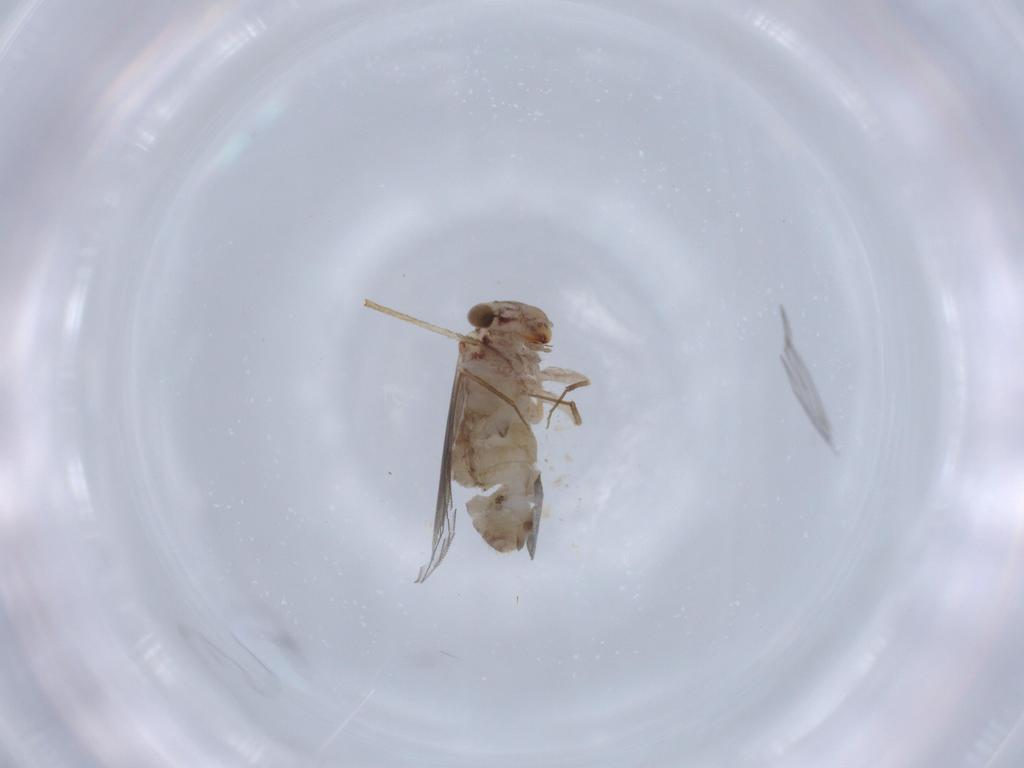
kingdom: Animalia
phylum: Arthropoda
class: Insecta
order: Psocodea
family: Lepidopsocidae
